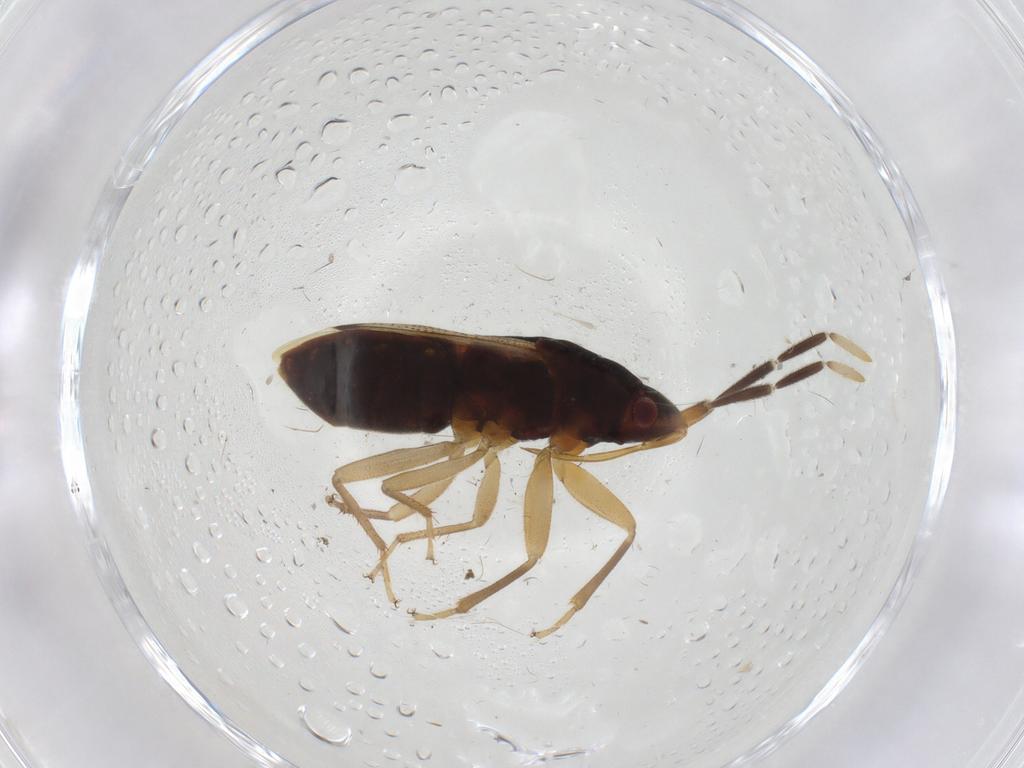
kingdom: Animalia
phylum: Arthropoda
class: Insecta
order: Hemiptera
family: Rhyparochromidae
